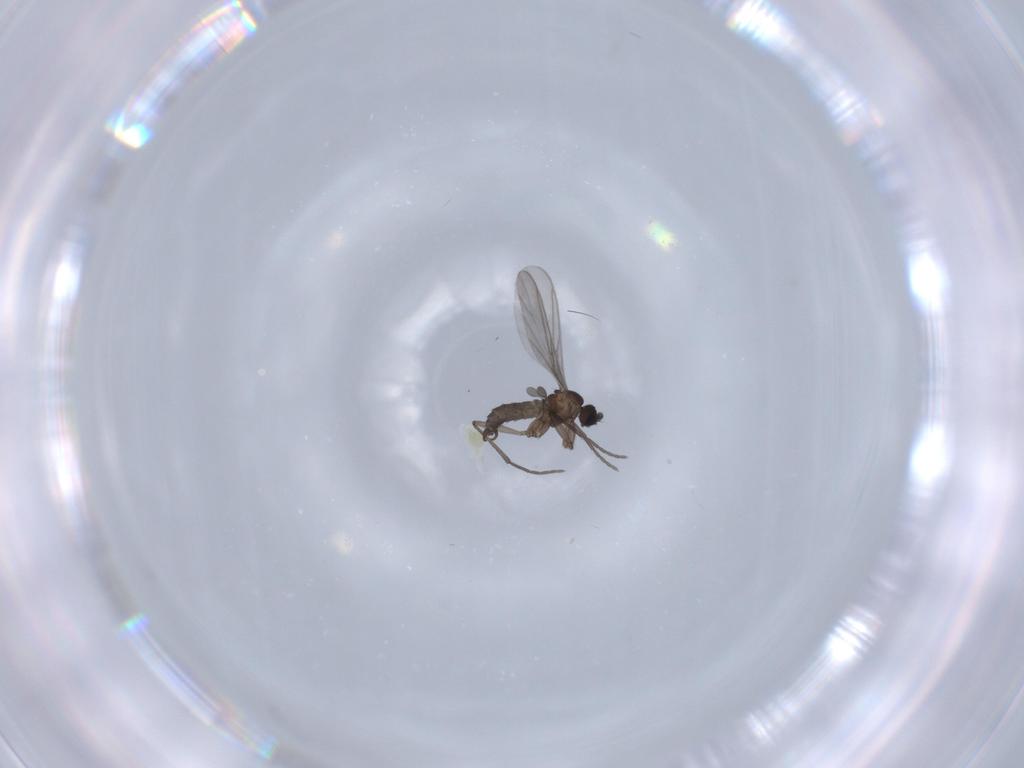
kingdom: Animalia
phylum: Arthropoda
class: Insecta
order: Diptera
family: Sciaridae
